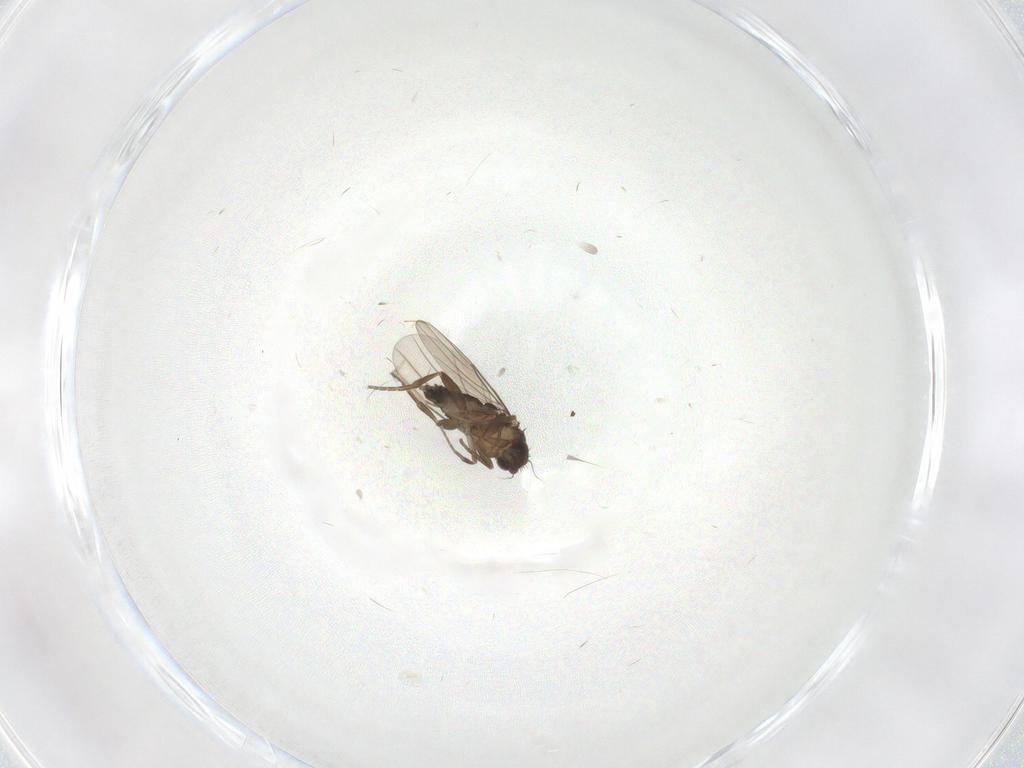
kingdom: Animalia
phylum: Arthropoda
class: Insecta
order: Diptera
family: Phoridae
